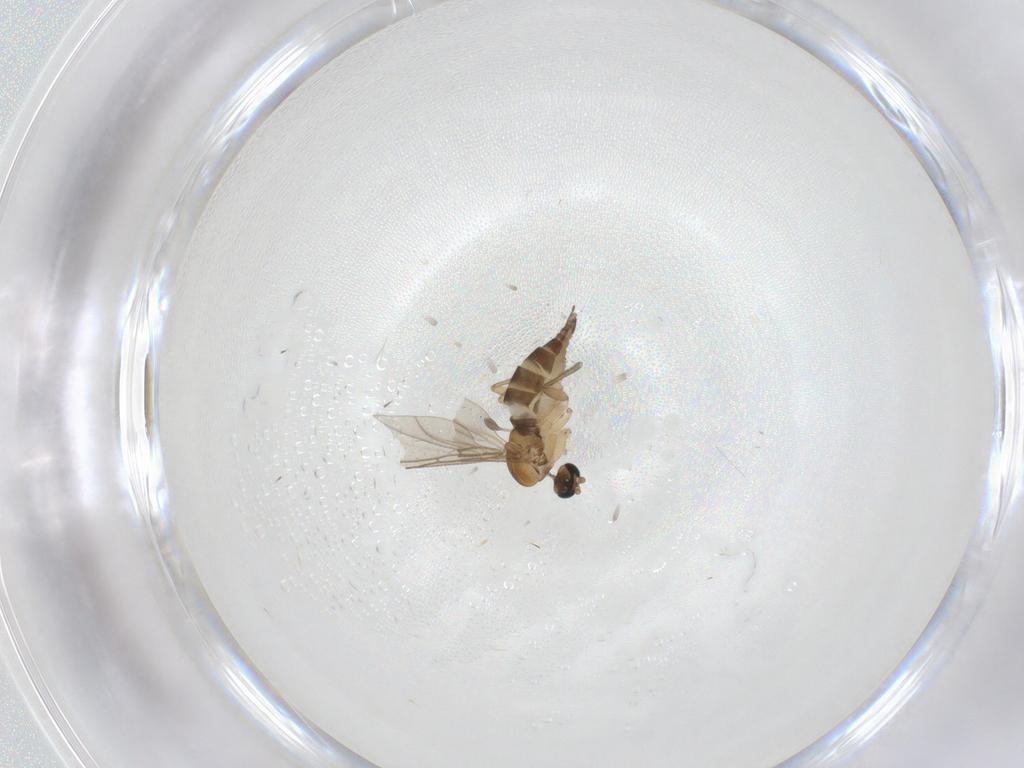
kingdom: Animalia
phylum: Arthropoda
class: Insecta
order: Diptera
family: Sciaridae
